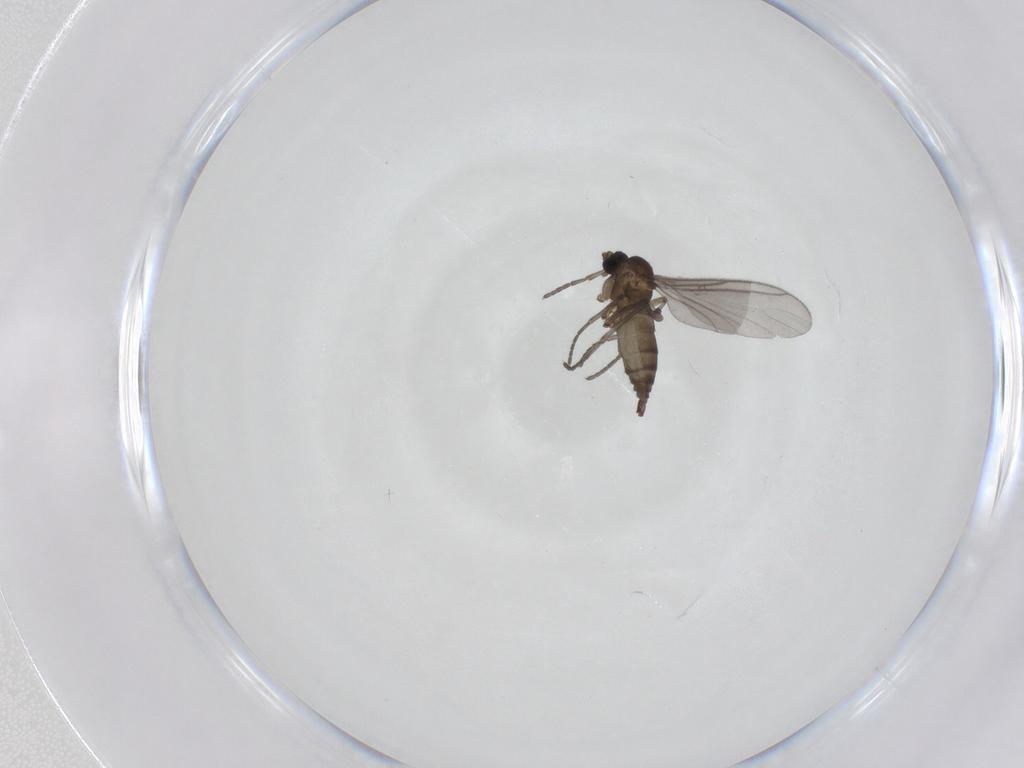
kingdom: Animalia
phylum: Arthropoda
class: Insecta
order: Diptera
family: Sciaridae
